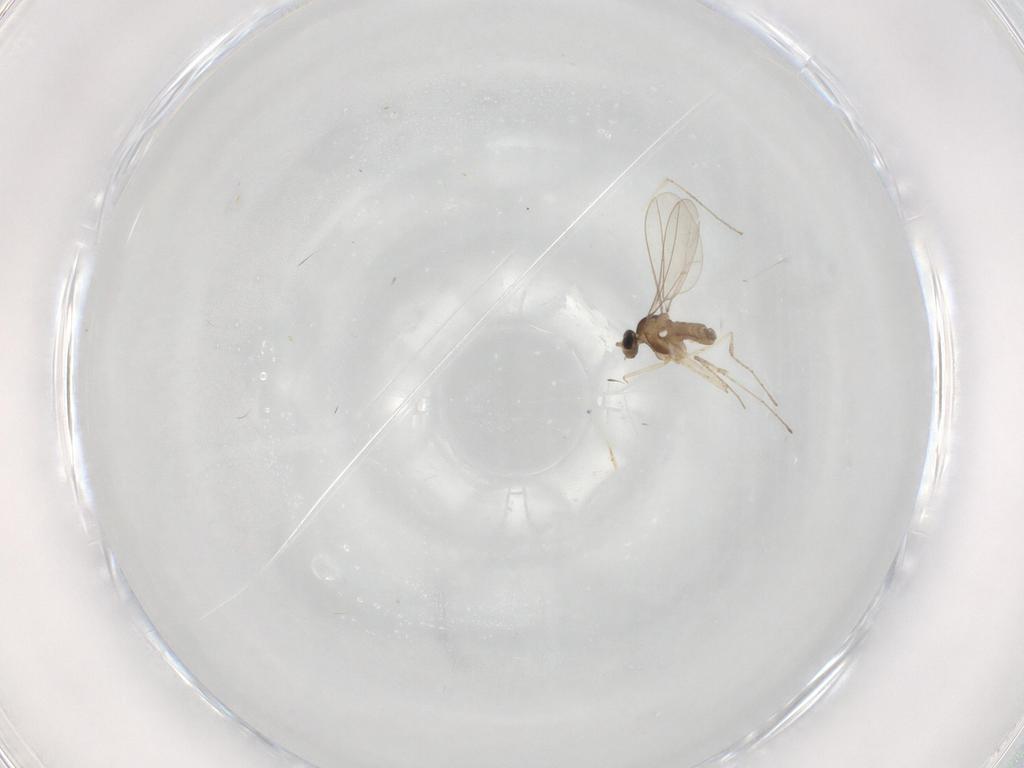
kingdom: Animalia
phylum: Arthropoda
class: Insecta
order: Diptera
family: Cecidomyiidae
